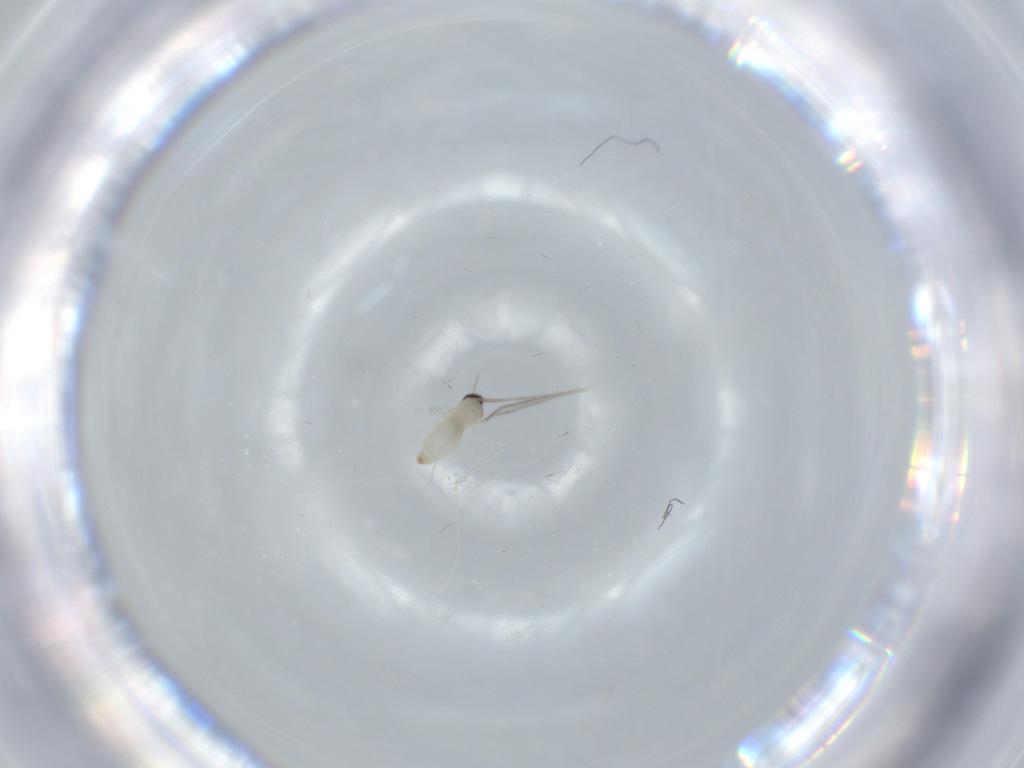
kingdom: Animalia
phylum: Arthropoda
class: Insecta
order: Diptera
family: Cecidomyiidae
